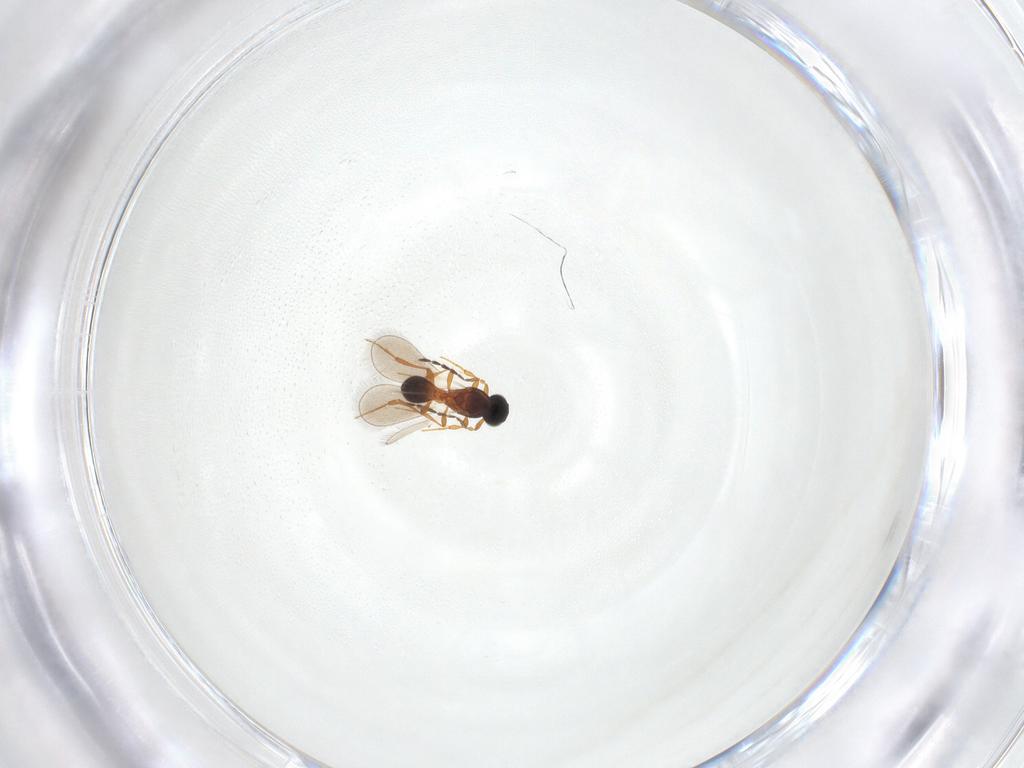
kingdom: Animalia
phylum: Arthropoda
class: Insecta
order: Hymenoptera
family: Platygastridae
